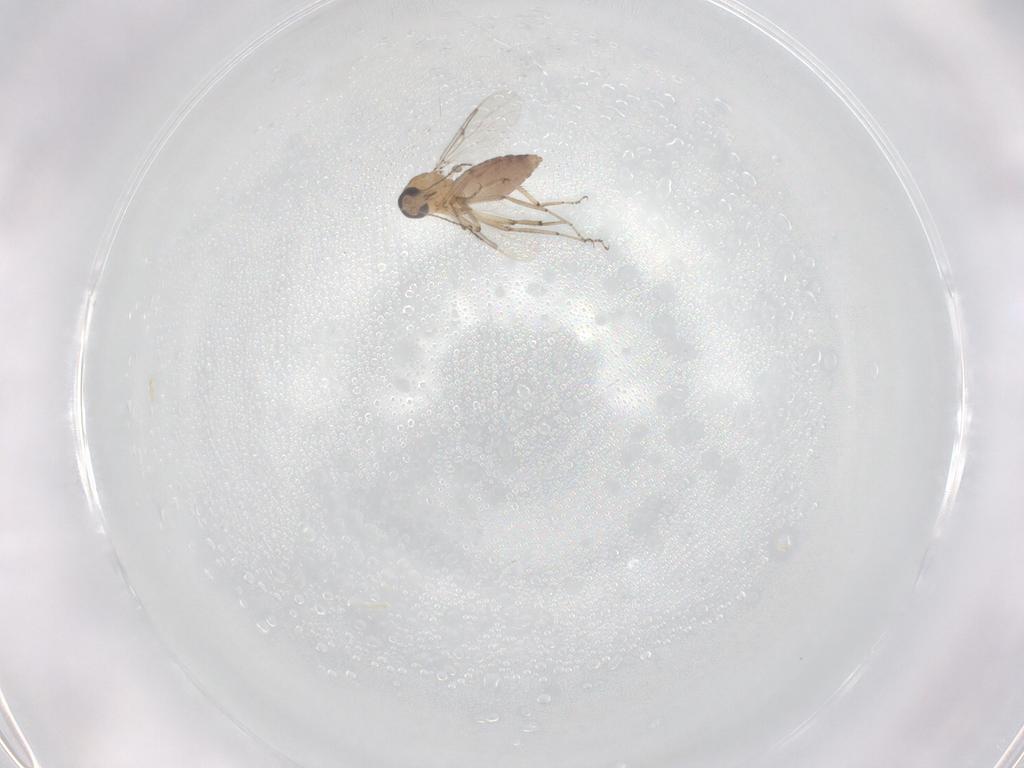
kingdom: Animalia
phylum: Arthropoda
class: Insecta
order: Diptera
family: Ceratopogonidae
